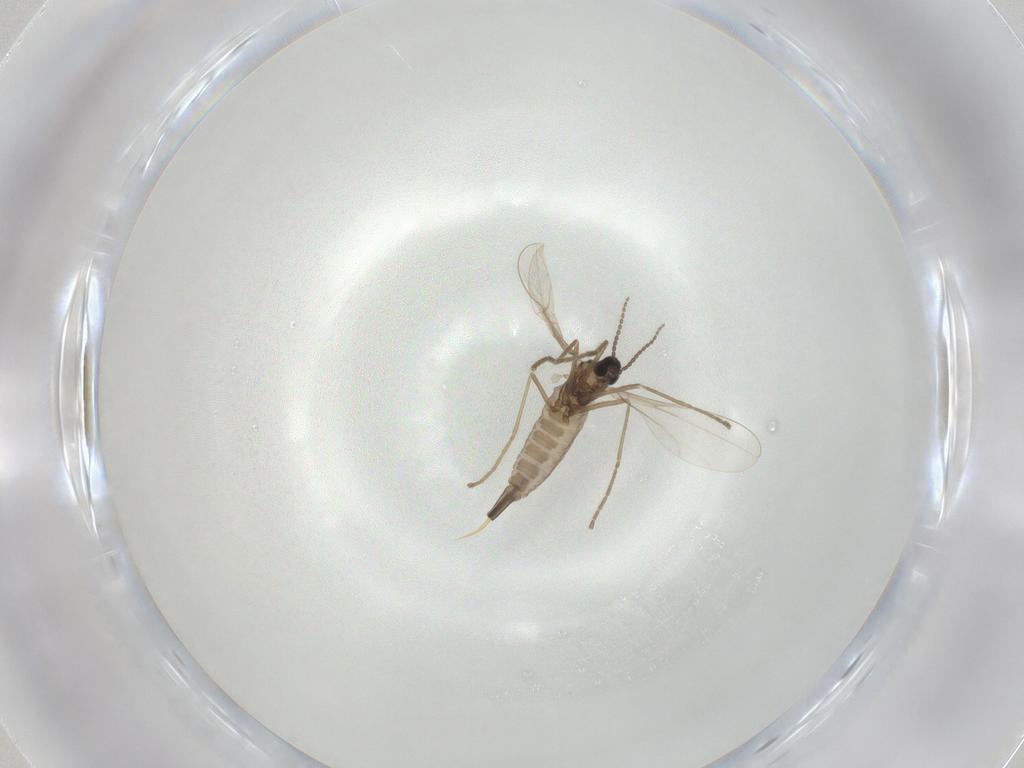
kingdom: Animalia
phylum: Arthropoda
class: Insecta
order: Diptera
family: Cecidomyiidae
